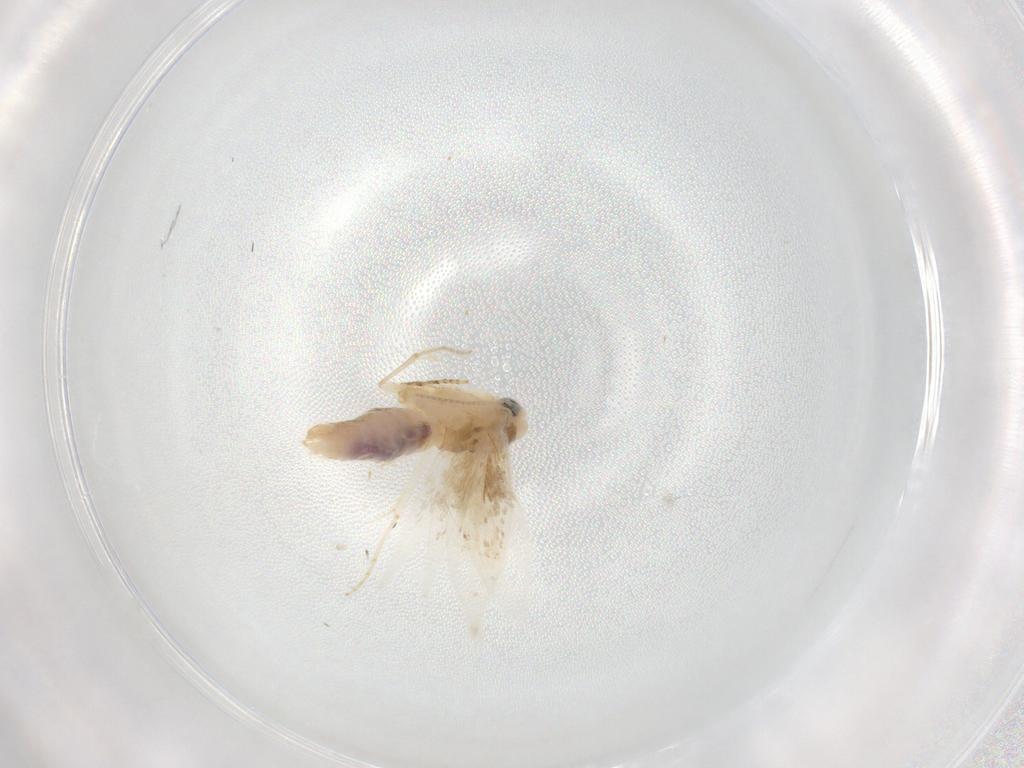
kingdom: Animalia
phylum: Arthropoda
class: Insecta
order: Lepidoptera
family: Bucculatricidae
